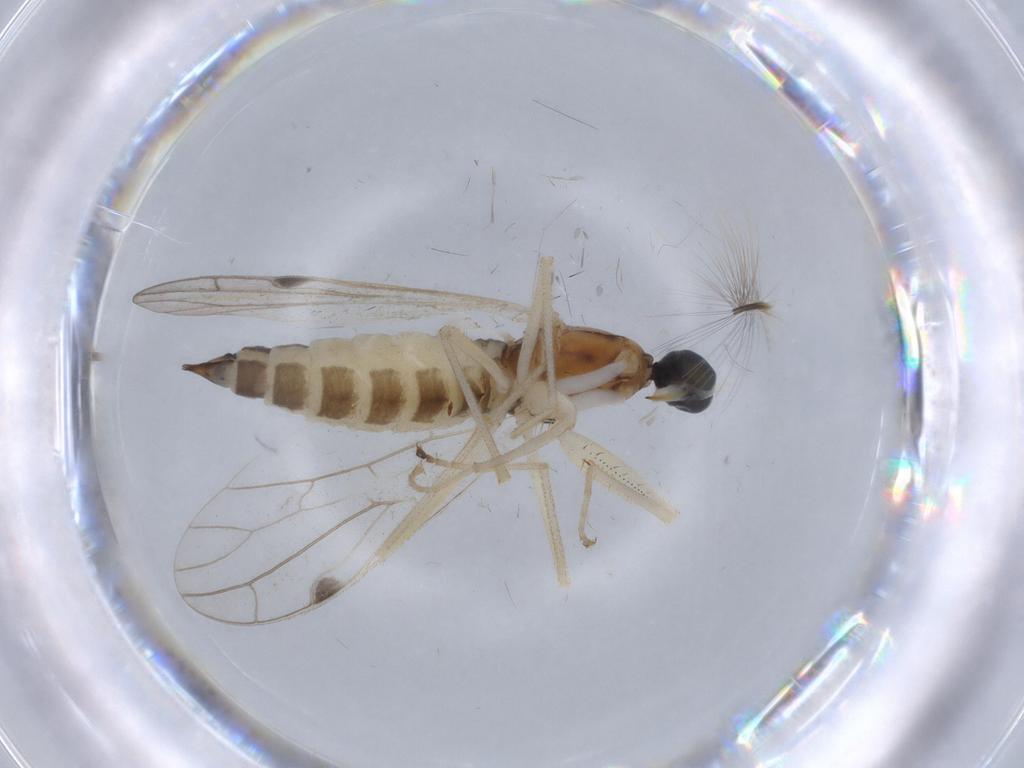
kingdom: Animalia
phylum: Arthropoda
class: Insecta
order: Diptera
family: Empididae
